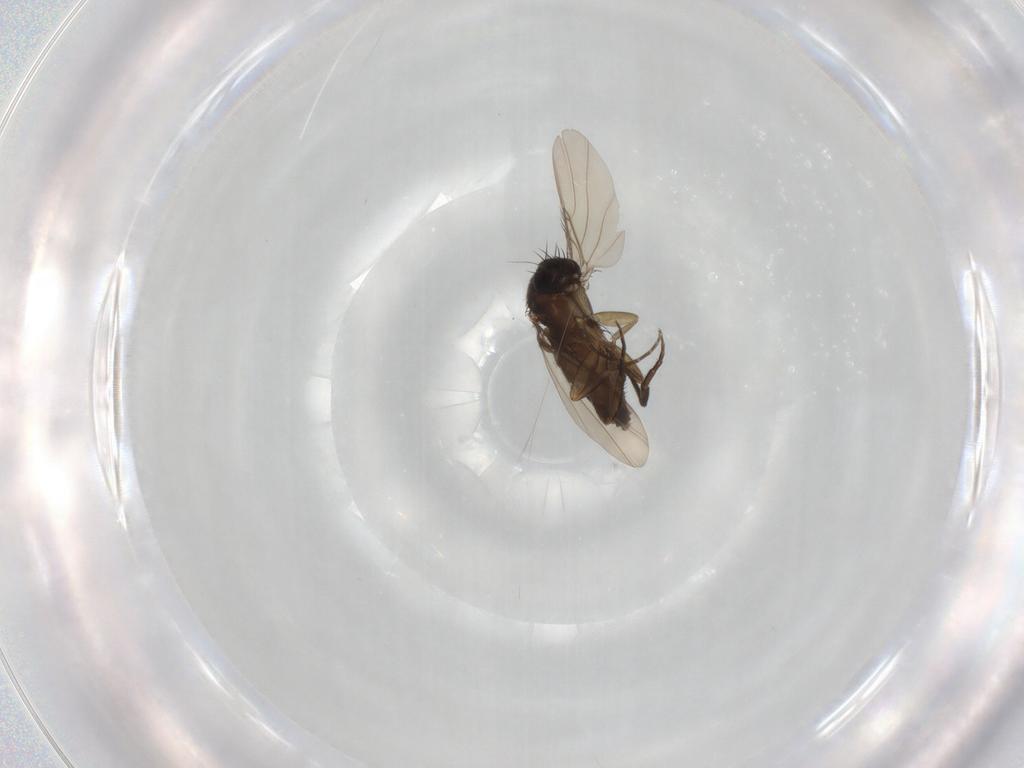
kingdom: Animalia
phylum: Arthropoda
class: Insecta
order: Diptera
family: Phoridae
